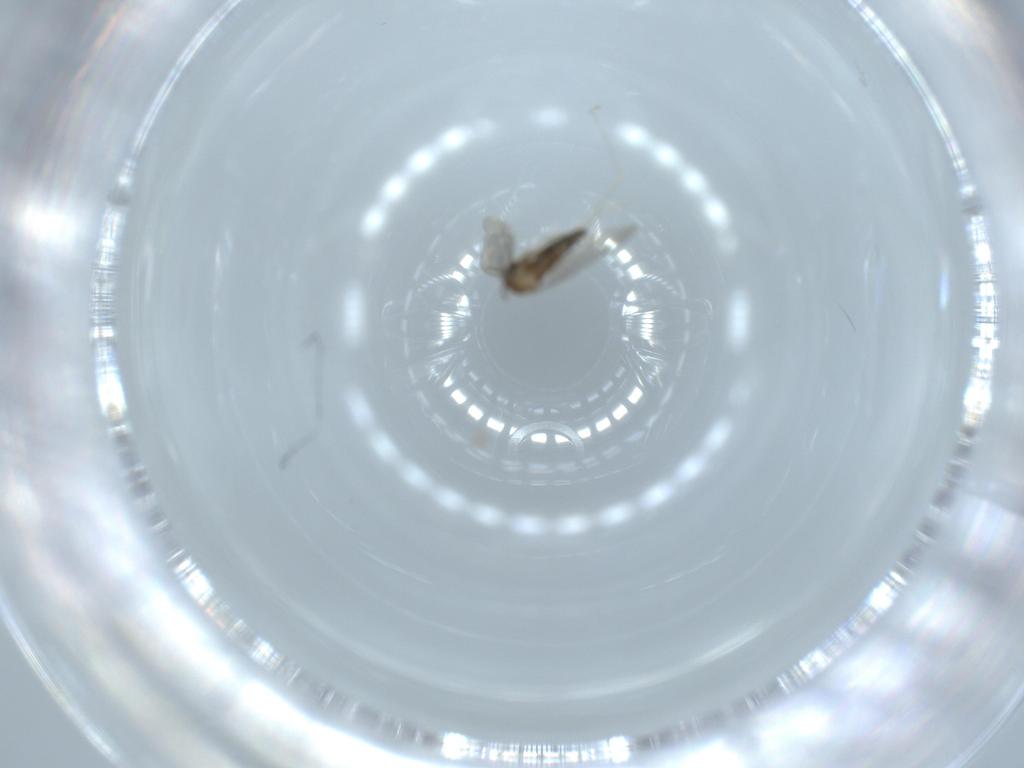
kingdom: Animalia
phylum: Arthropoda
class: Insecta
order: Diptera
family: Cecidomyiidae
